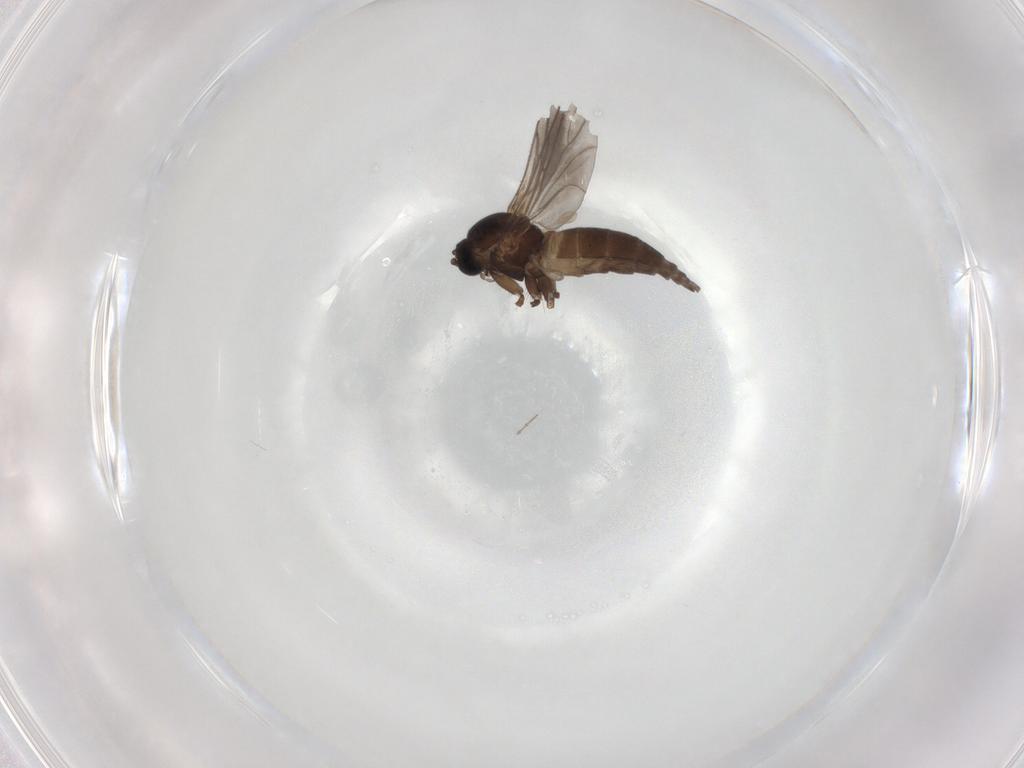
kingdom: Animalia
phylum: Arthropoda
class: Insecta
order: Diptera
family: Sciaridae
